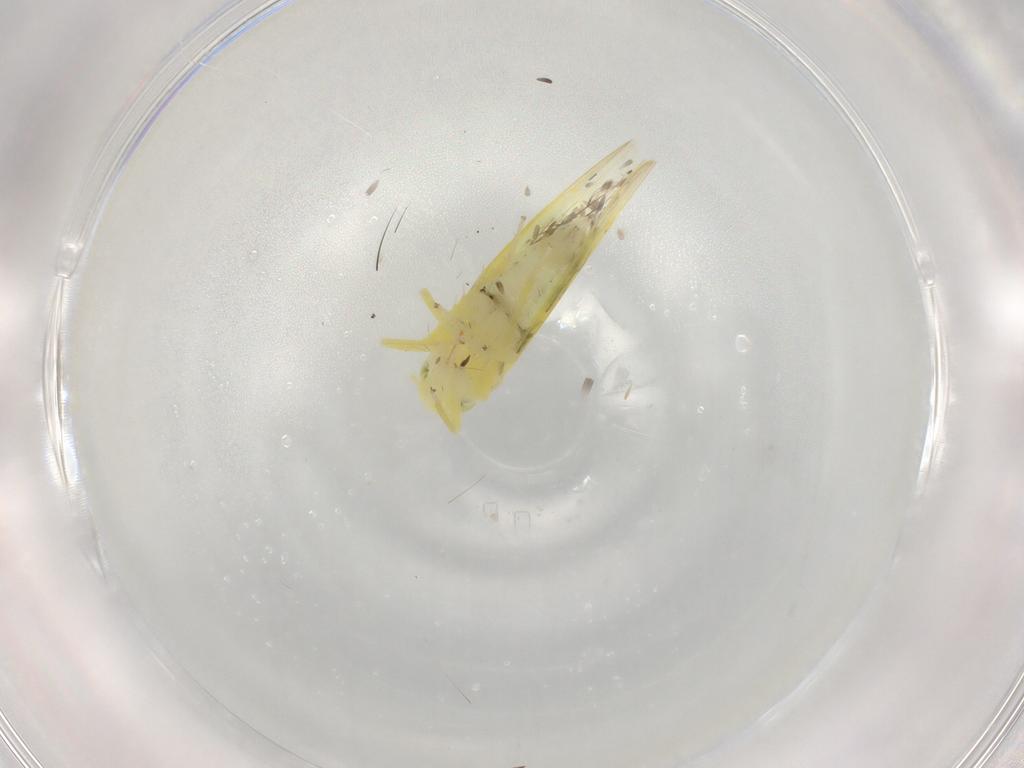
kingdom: Animalia
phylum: Arthropoda
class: Insecta
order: Hemiptera
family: Cicadellidae
